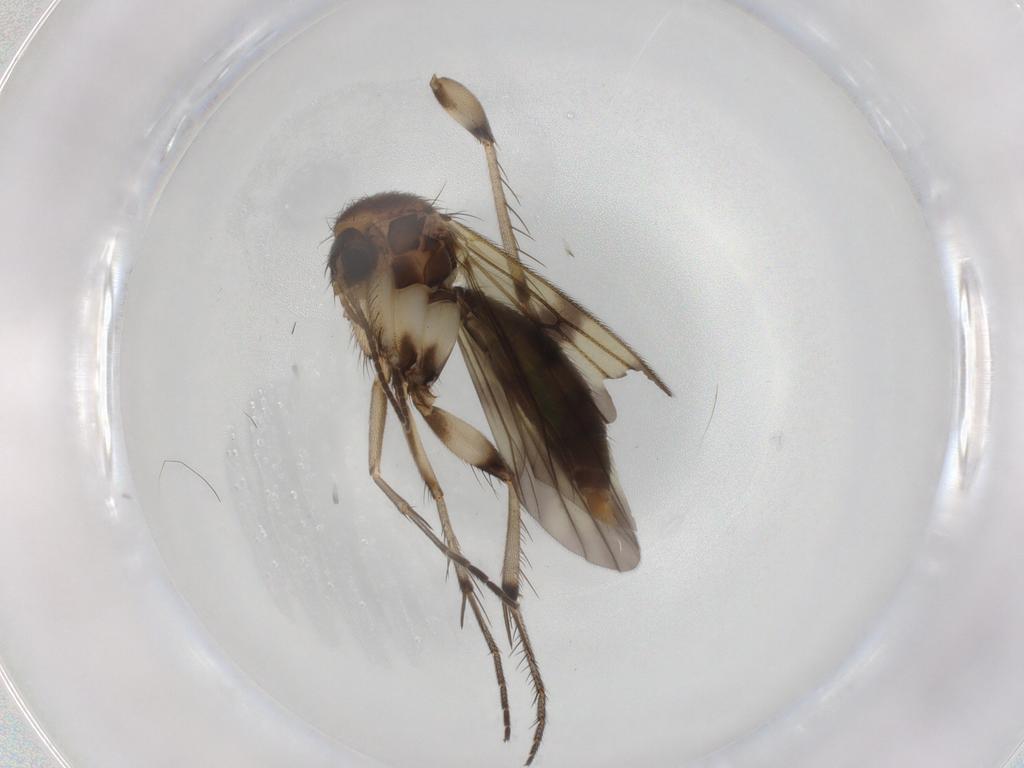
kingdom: Animalia
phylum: Arthropoda
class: Insecta
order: Diptera
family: Mycetophilidae
